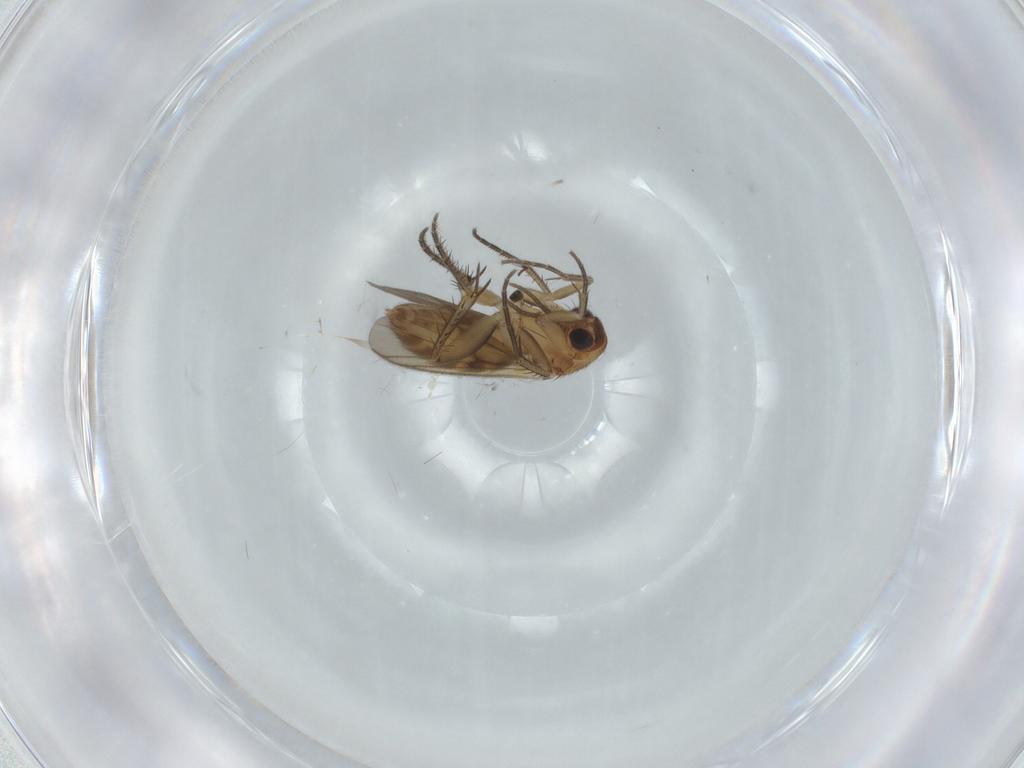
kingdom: Animalia
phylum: Arthropoda
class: Insecta
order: Diptera
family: Mycetophilidae
